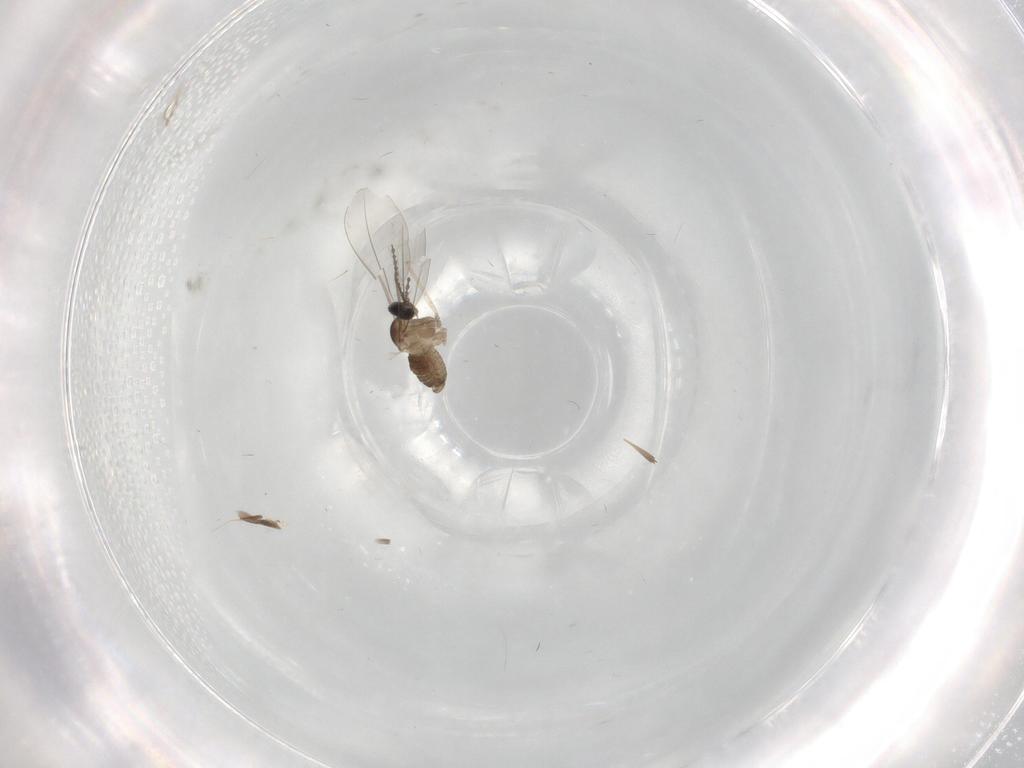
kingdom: Animalia
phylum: Arthropoda
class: Insecta
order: Diptera
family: Cecidomyiidae
